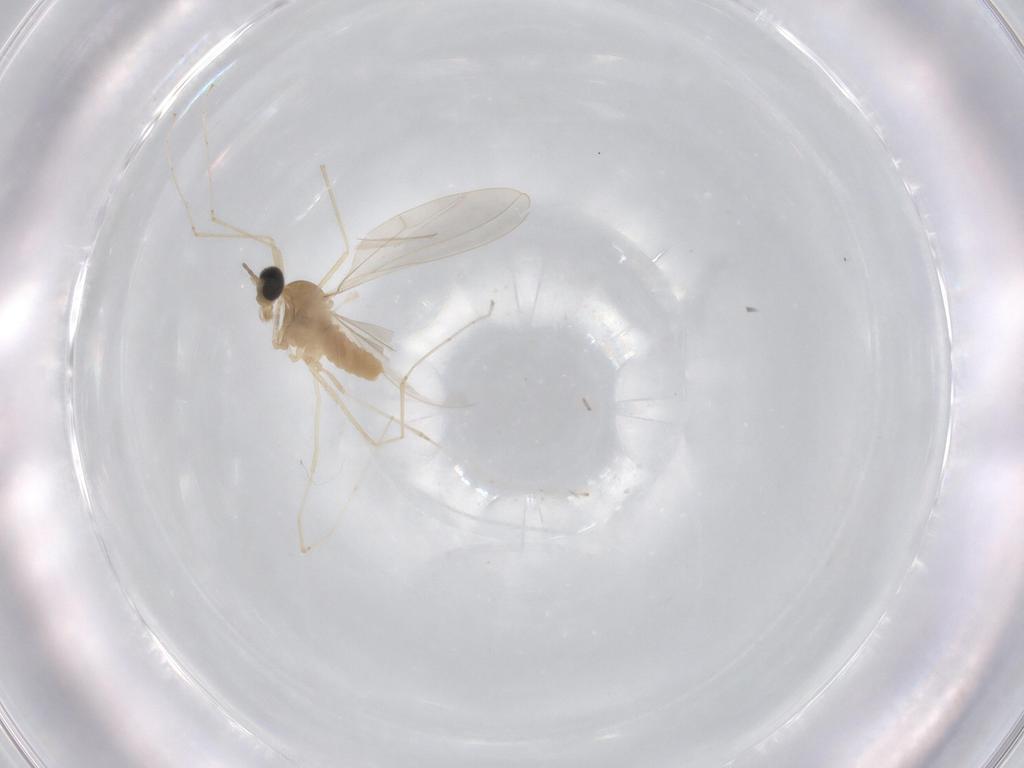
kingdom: Animalia
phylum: Arthropoda
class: Insecta
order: Diptera
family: Cecidomyiidae
